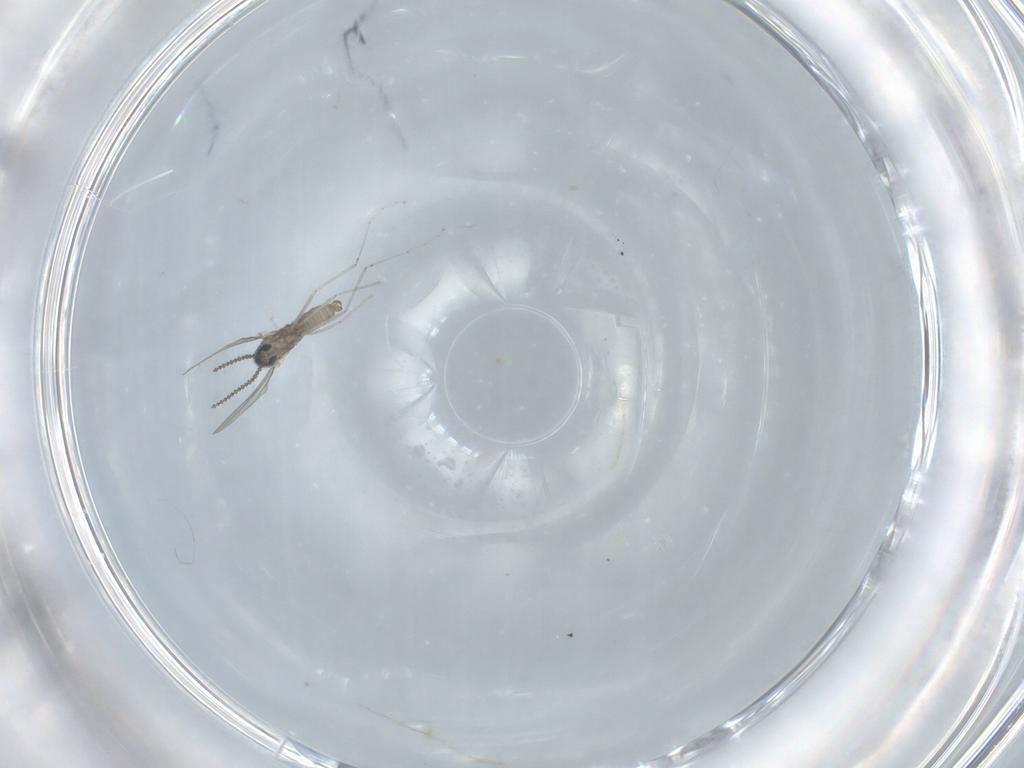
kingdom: Animalia
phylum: Arthropoda
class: Insecta
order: Diptera
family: Cecidomyiidae
